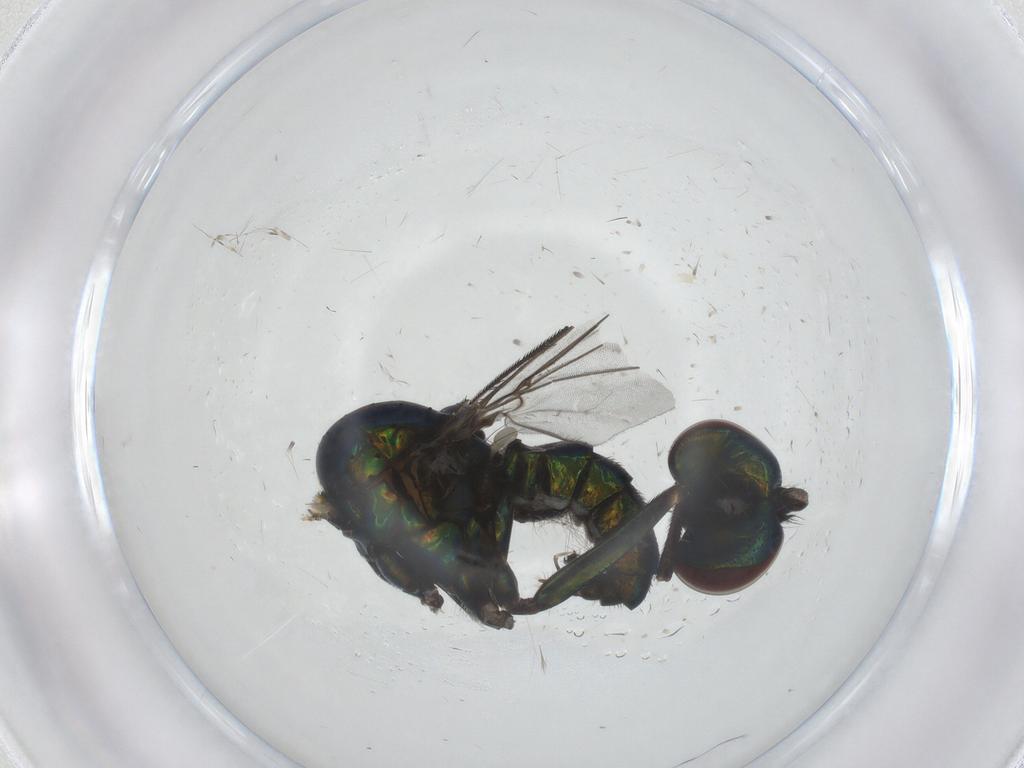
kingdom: Animalia
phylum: Arthropoda
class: Insecta
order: Diptera
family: Dolichopodidae
